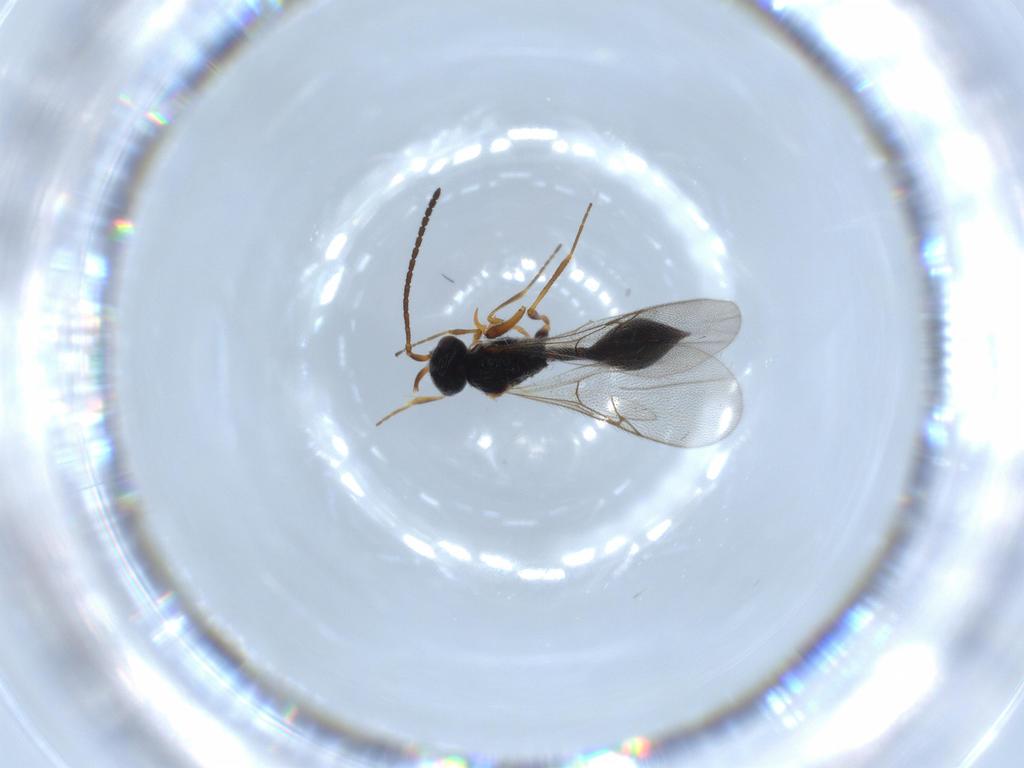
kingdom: Animalia
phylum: Arthropoda
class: Insecta
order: Hymenoptera
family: Diapriidae
